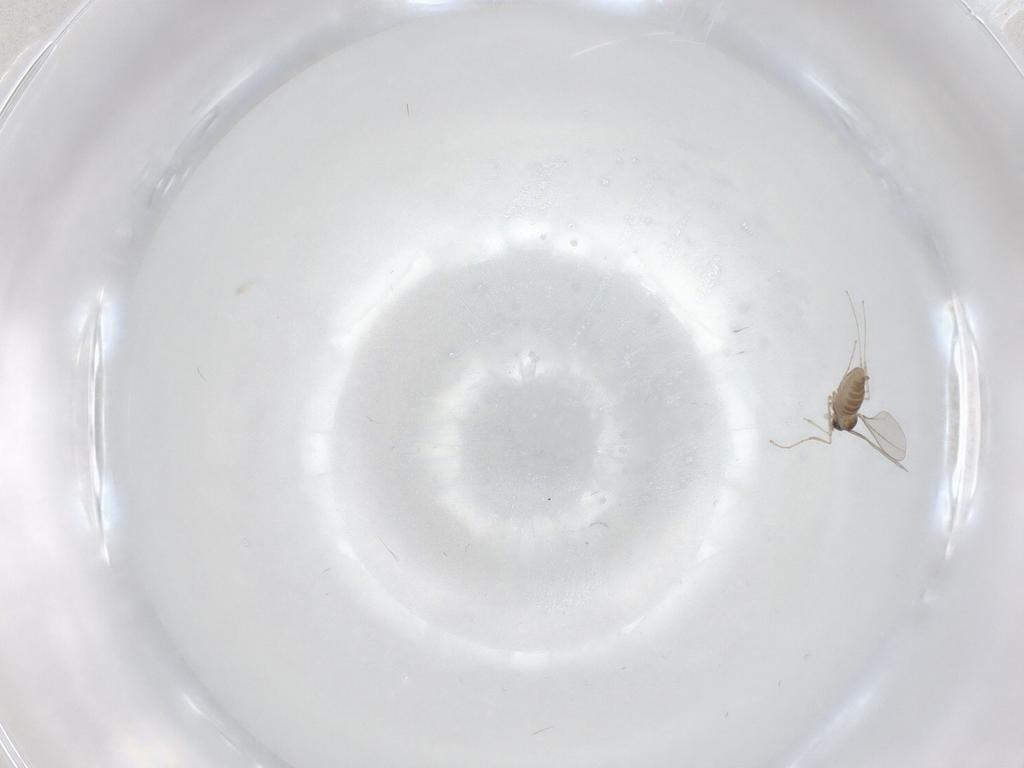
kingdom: Animalia
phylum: Arthropoda
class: Insecta
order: Diptera
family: Cecidomyiidae
